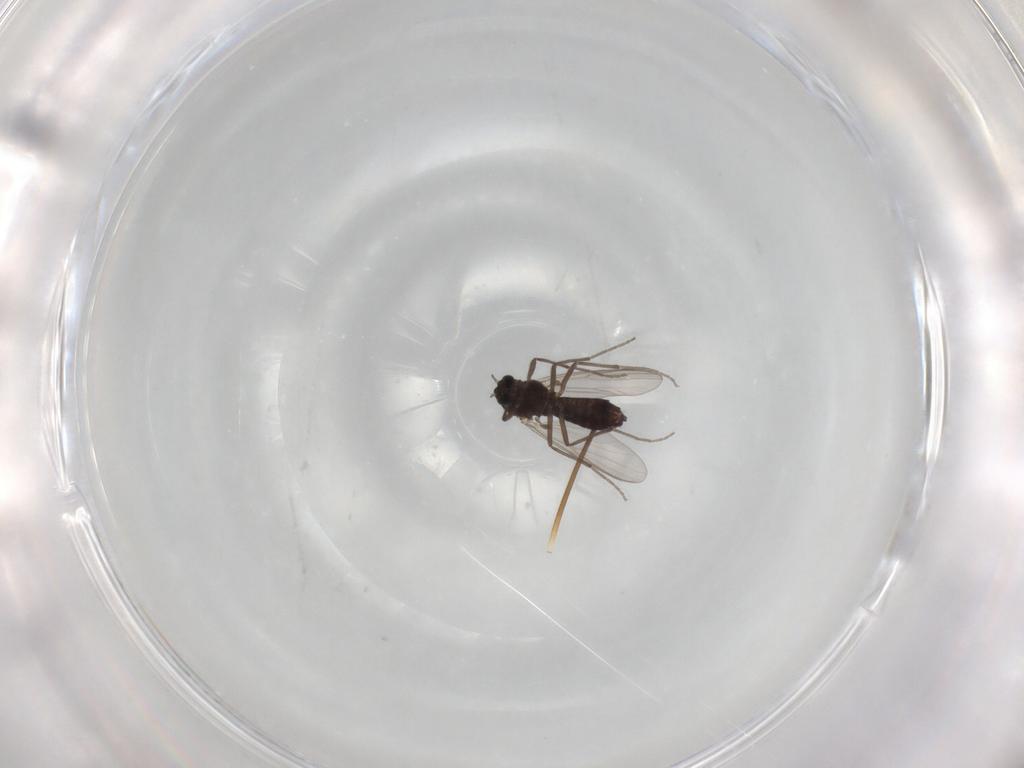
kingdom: Animalia
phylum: Arthropoda
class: Insecta
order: Diptera
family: Chironomidae
